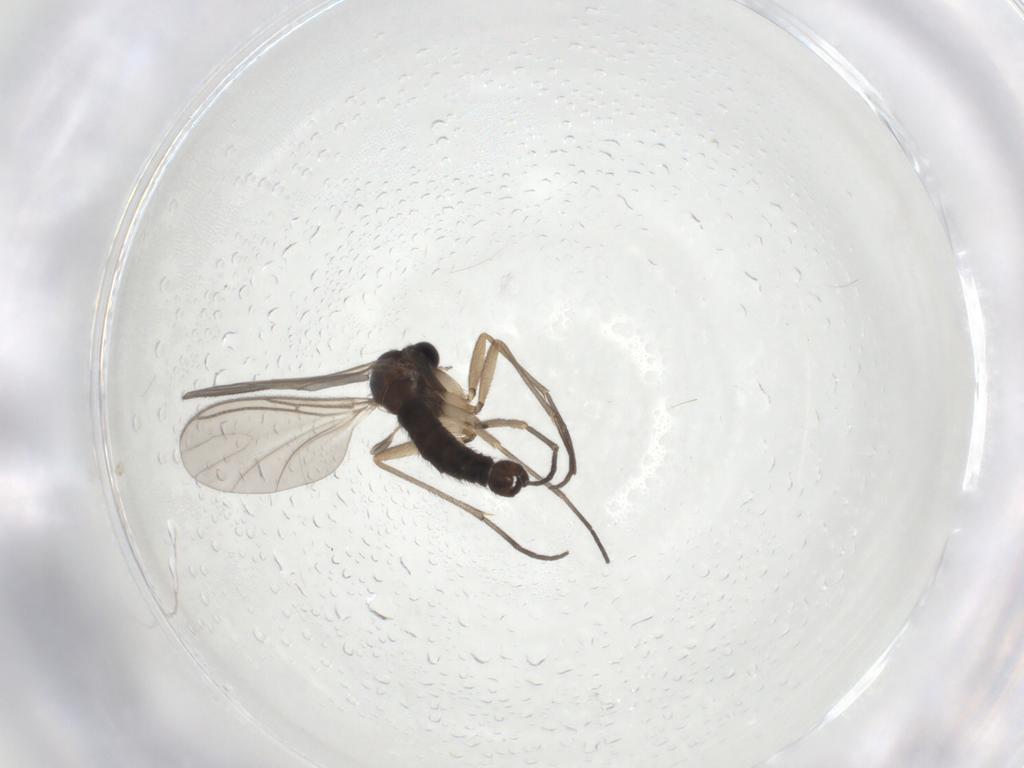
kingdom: Animalia
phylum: Arthropoda
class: Insecta
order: Diptera
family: Sciaridae
